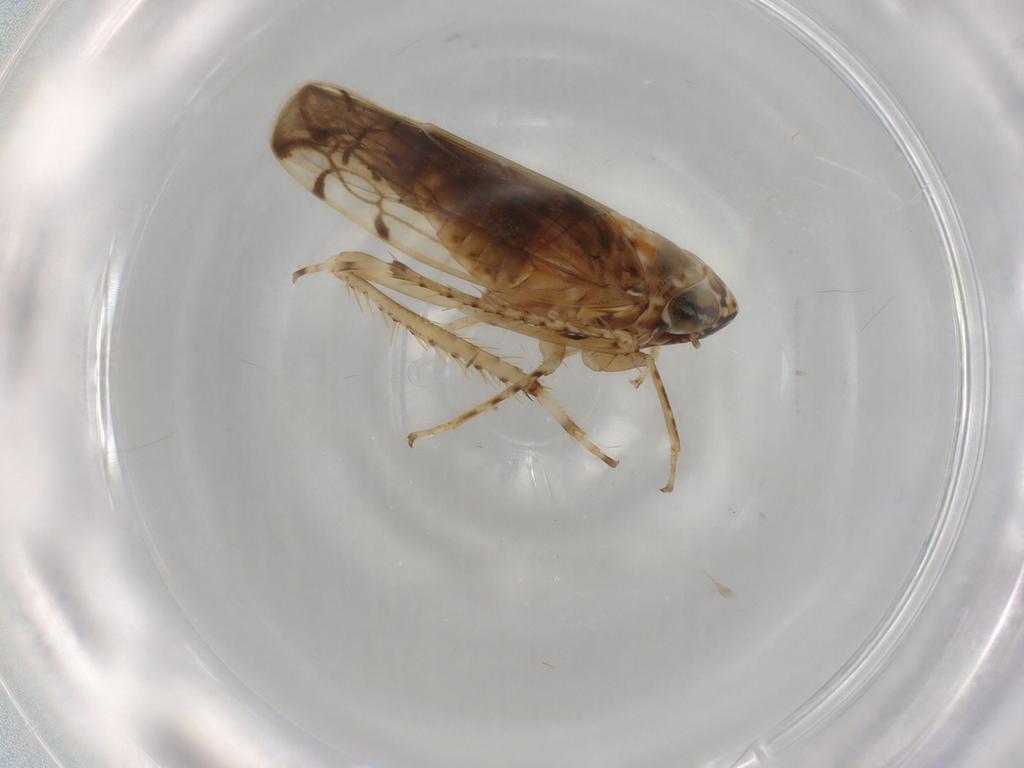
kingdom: Animalia
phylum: Arthropoda
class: Insecta
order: Hemiptera
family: Cicadellidae
